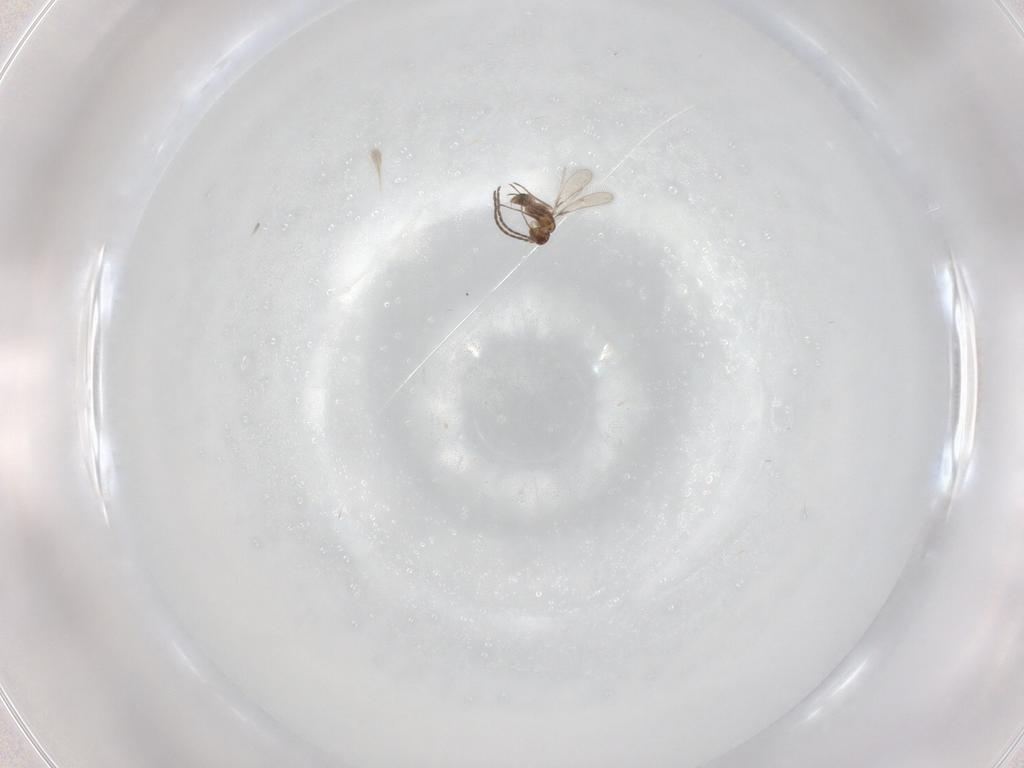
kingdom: Animalia
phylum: Arthropoda
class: Insecta
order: Hymenoptera
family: Mymaridae
